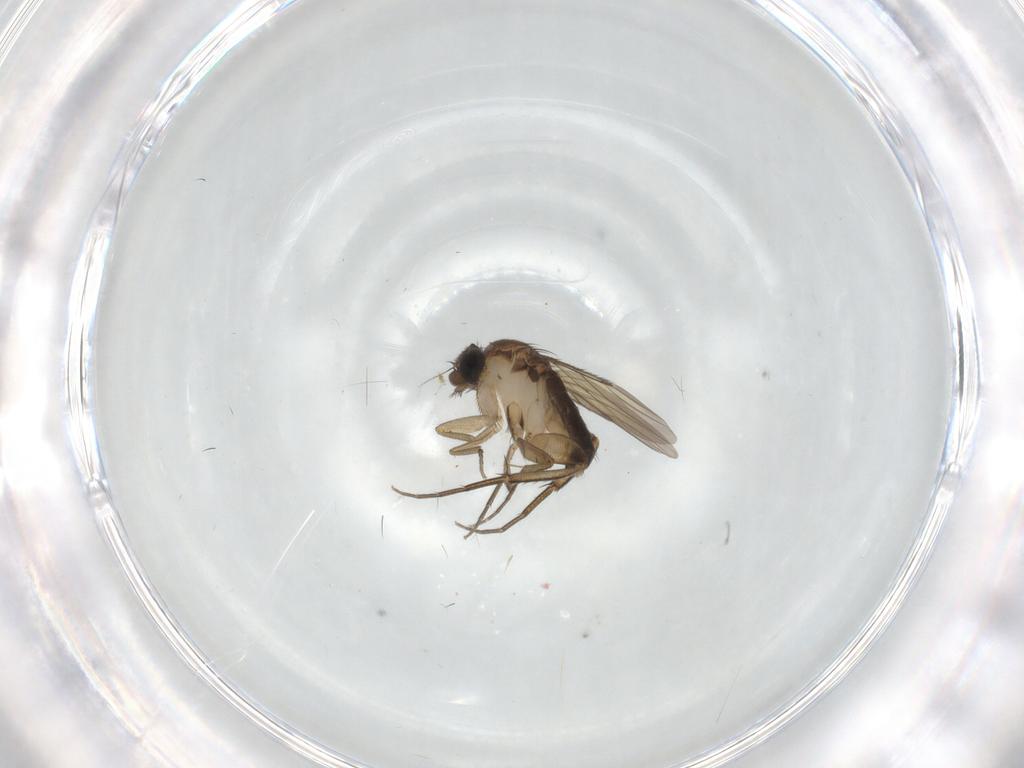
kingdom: Animalia
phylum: Arthropoda
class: Insecta
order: Diptera
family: Phoridae
